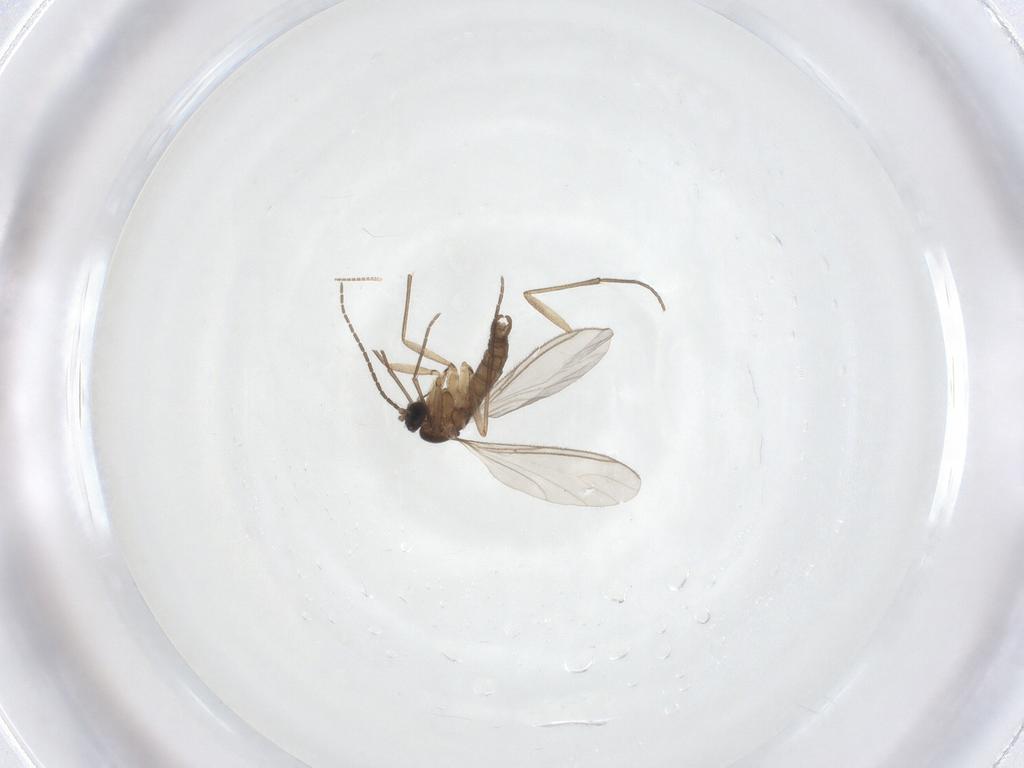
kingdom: Animalia
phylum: Arthropoda
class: Insecta
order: Diptera
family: Sciaridae
